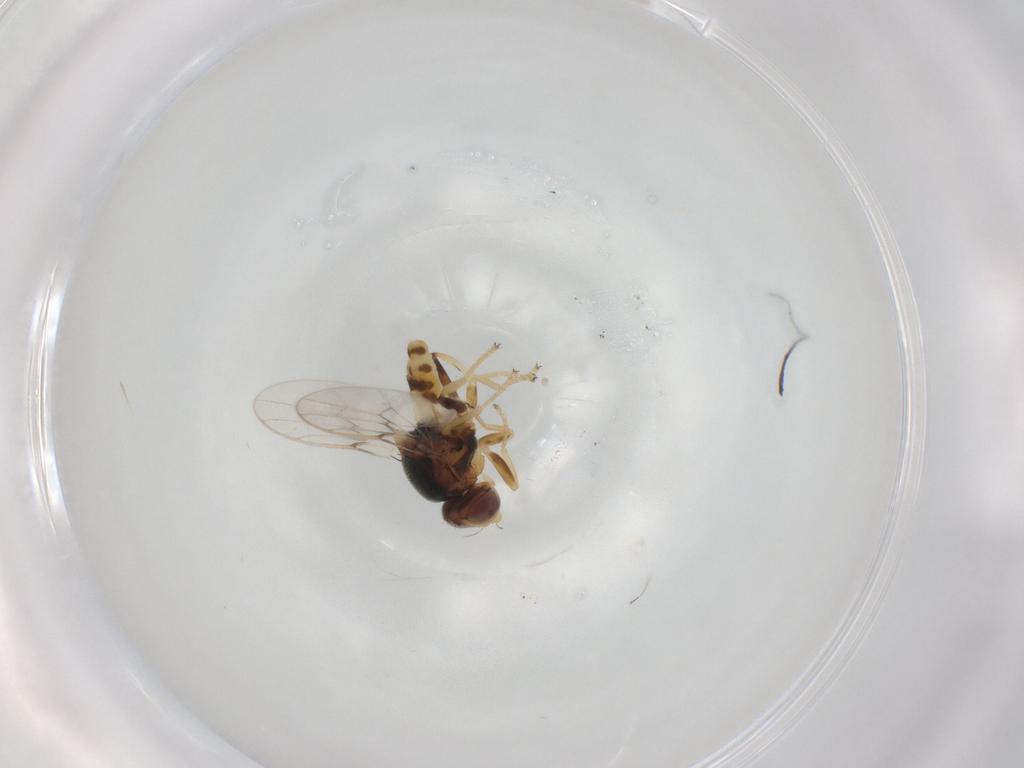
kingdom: Animalia
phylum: Arthropoda
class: Insecta
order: Diptera
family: Chloropidae
